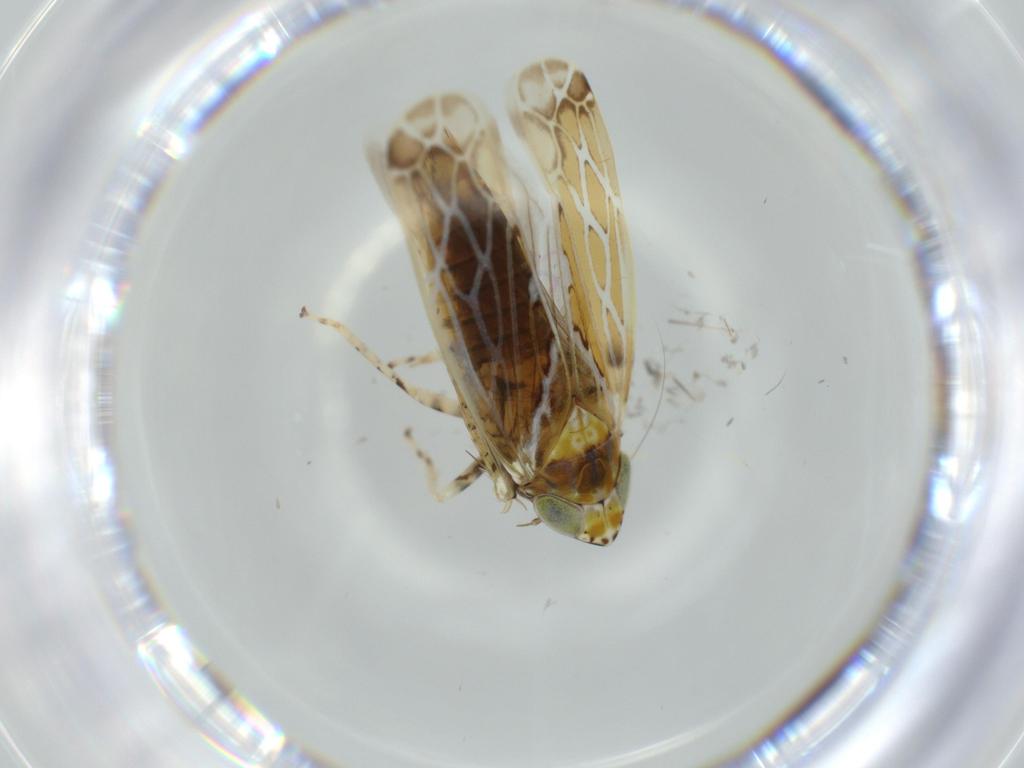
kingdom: Animalia
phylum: Arthropoda
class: Insecta
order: Hemiptera
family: Cicadellidae
